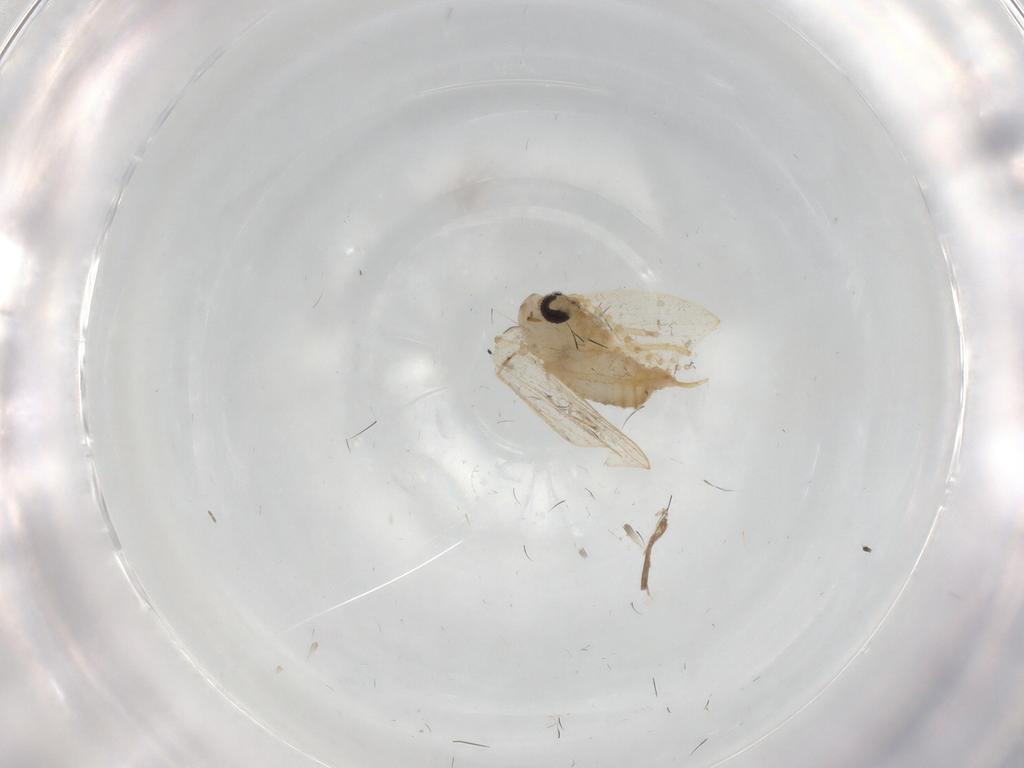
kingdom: Animalia
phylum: Arthropoda
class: Insecta
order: Diptera
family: Psychodidae
